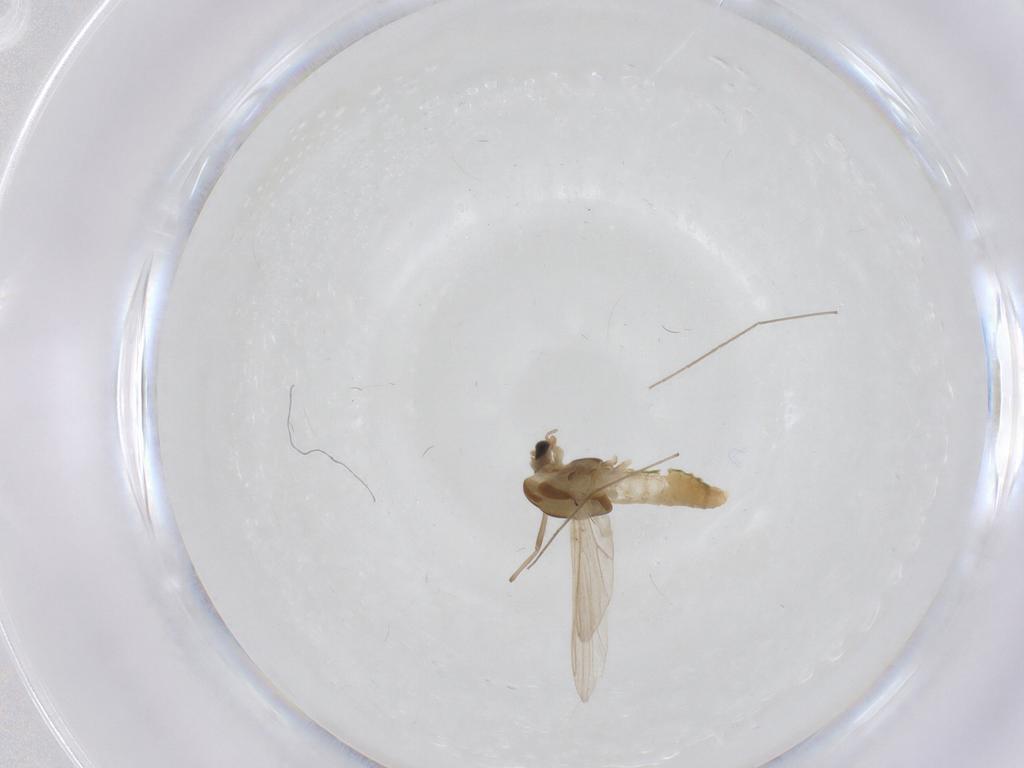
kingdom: Animalia
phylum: Arthropoda
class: Insecta
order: Diptera
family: Chironomidae
